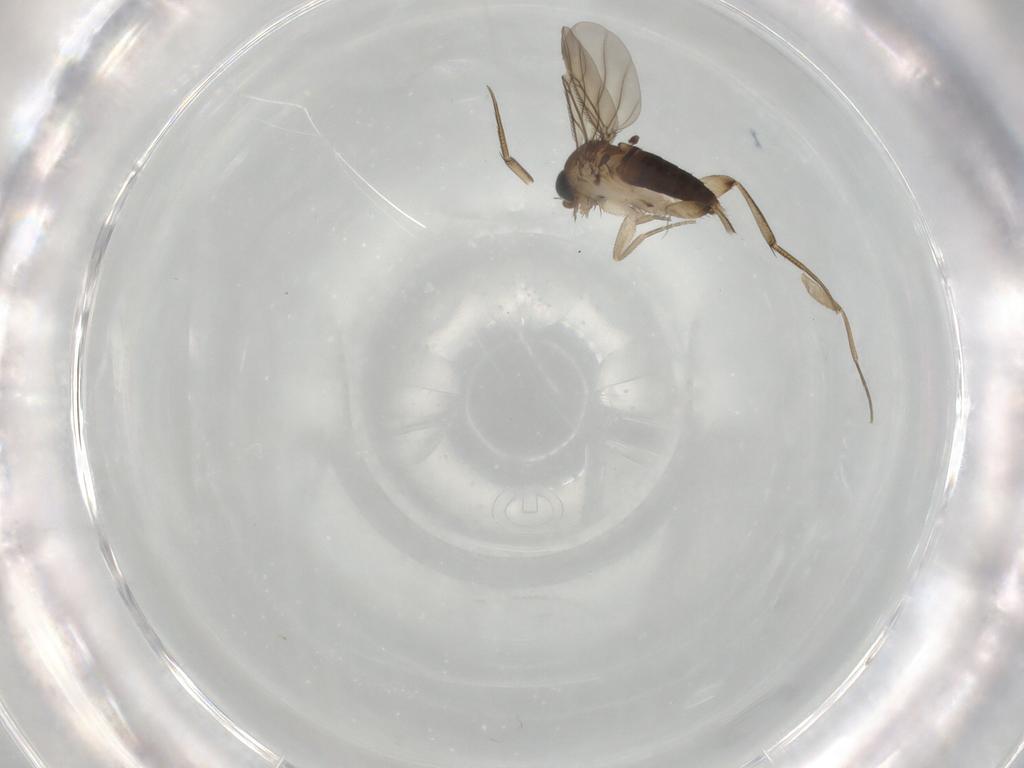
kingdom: Animalia
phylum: Arthropoda
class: Insecta
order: Diptera
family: Phoridae
